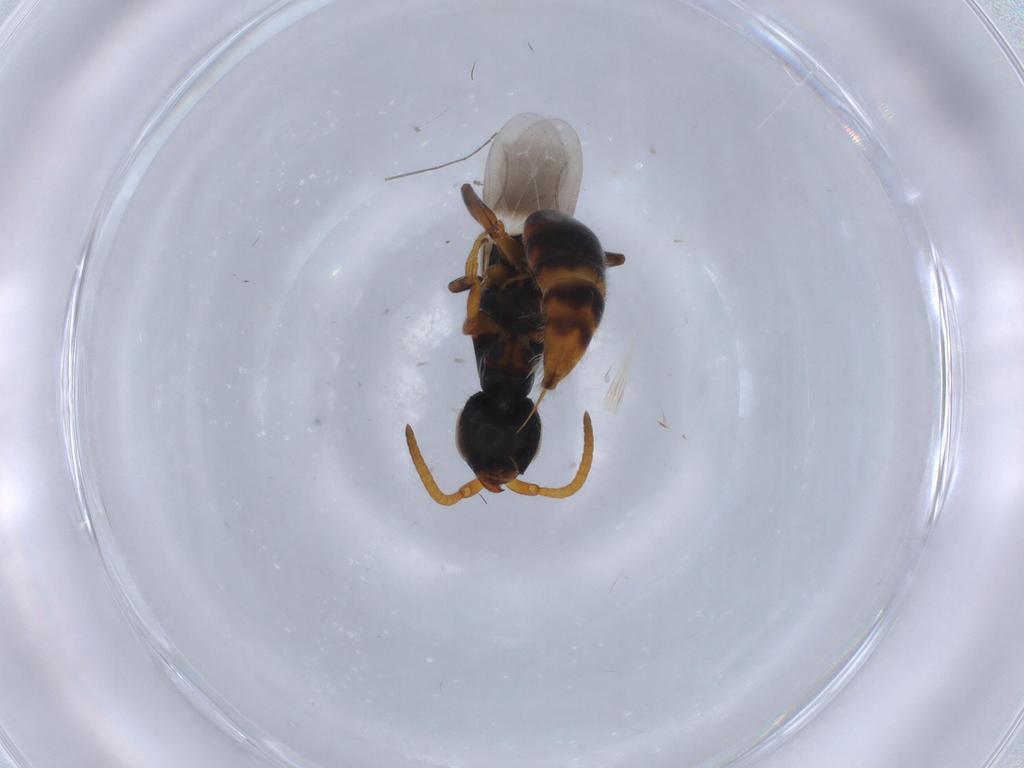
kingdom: Animalia
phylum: Arthropoda
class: Insecta
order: Hymenoptera
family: Bethylidae
